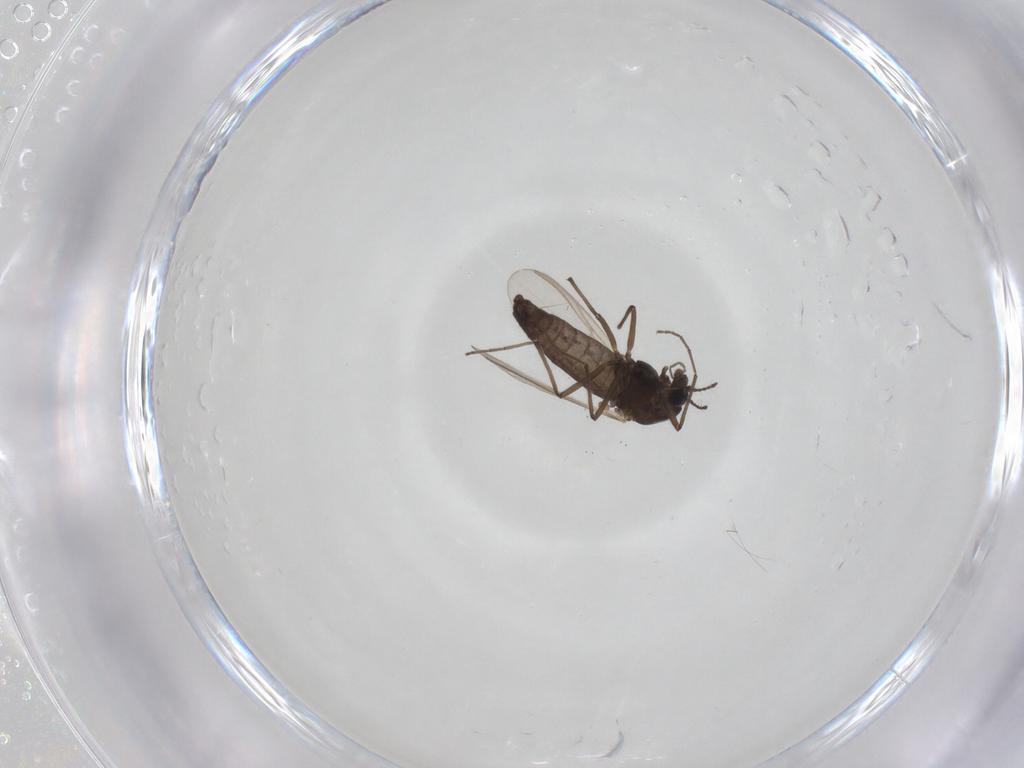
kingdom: Animalia
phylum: Arthropoda
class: Insecta
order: Diptera
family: Chironomidae
